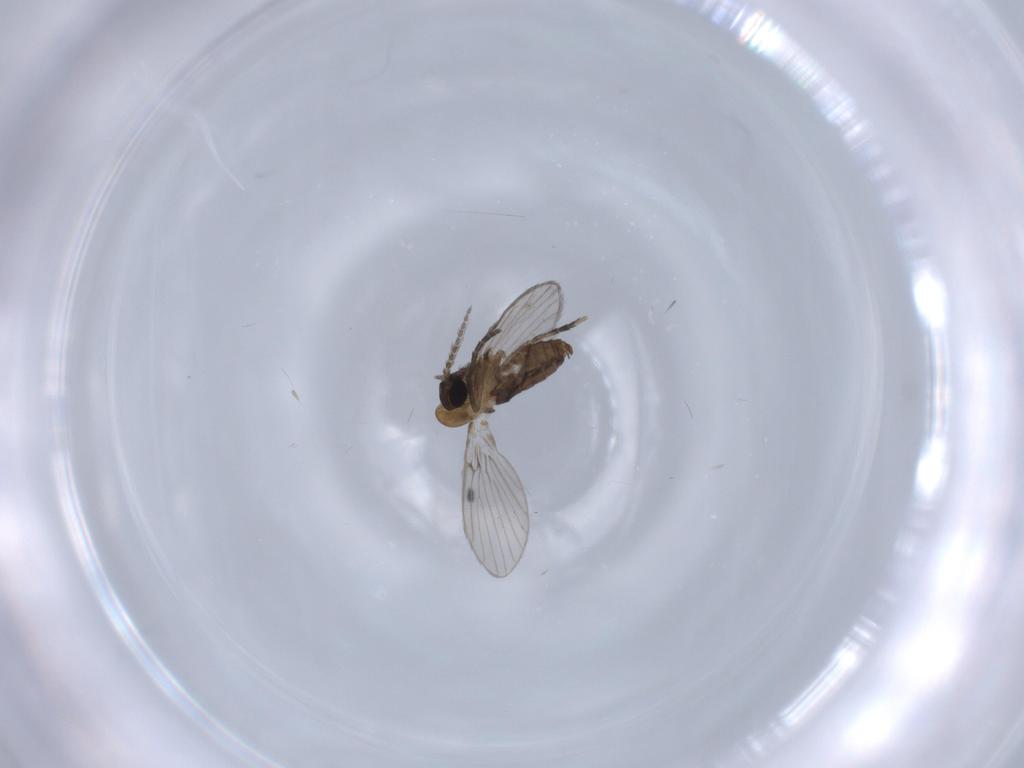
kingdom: Animalia
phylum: Arthropoda
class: Insecta
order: Diptera
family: Psychodidae
